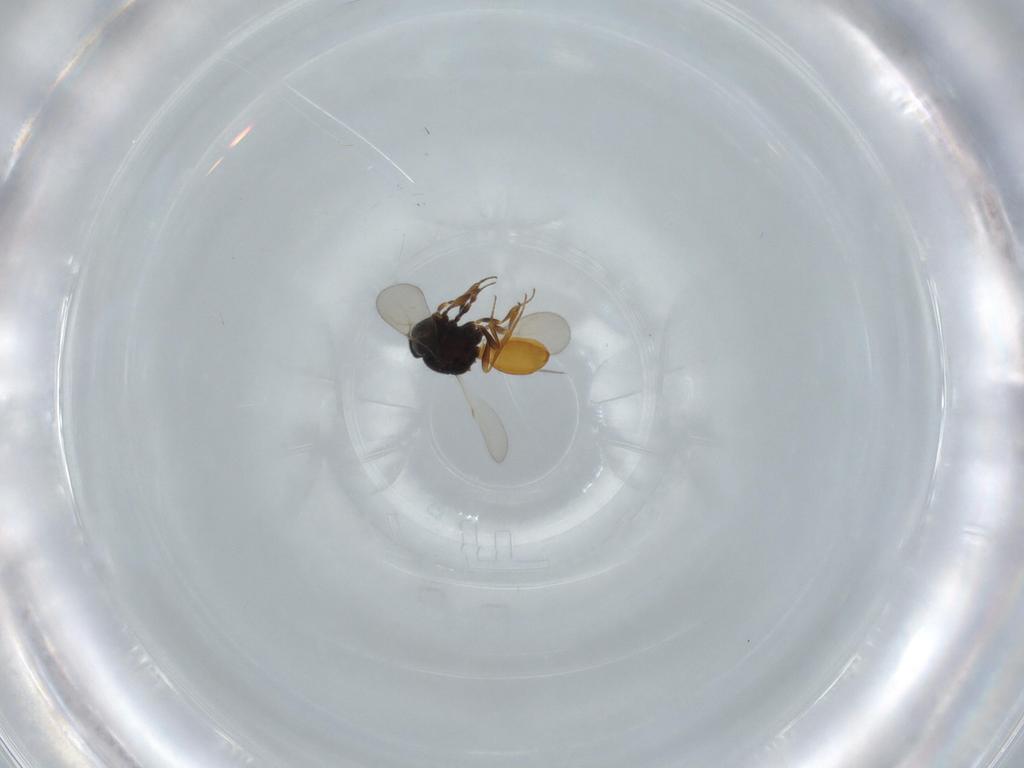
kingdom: Animalia
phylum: Arthropoda
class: Insecta
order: Hymenoptera
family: Scelionidae
